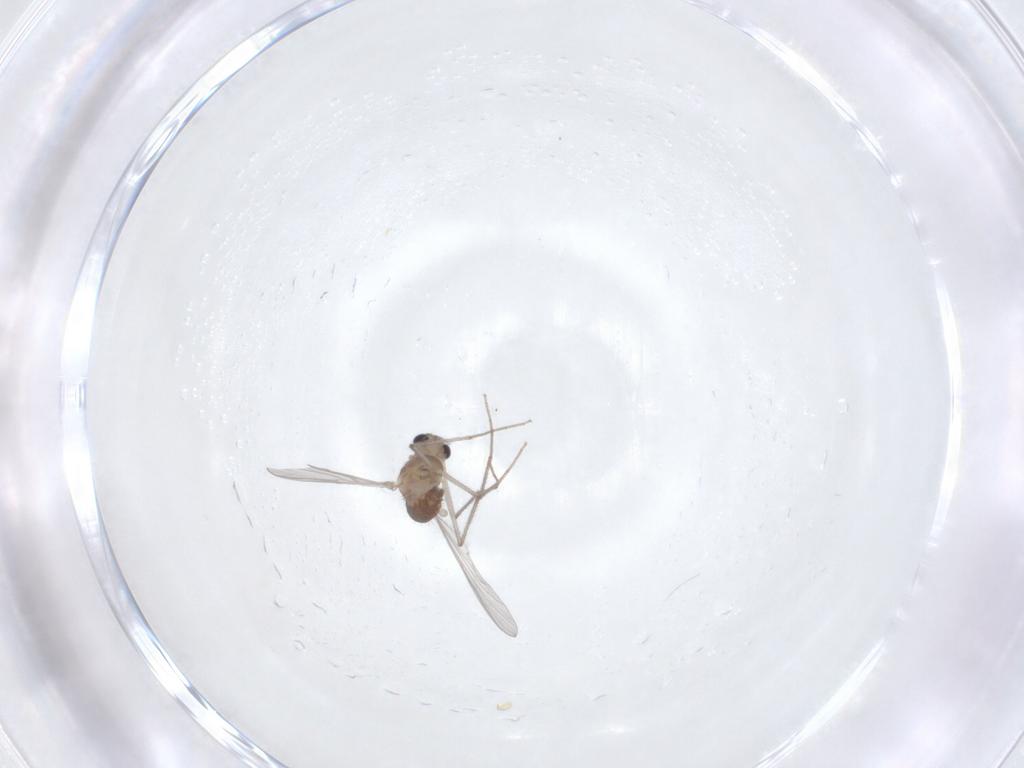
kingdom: Animalia
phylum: Arthropoda
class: Insecta
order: Diptera
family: Chironomidae
